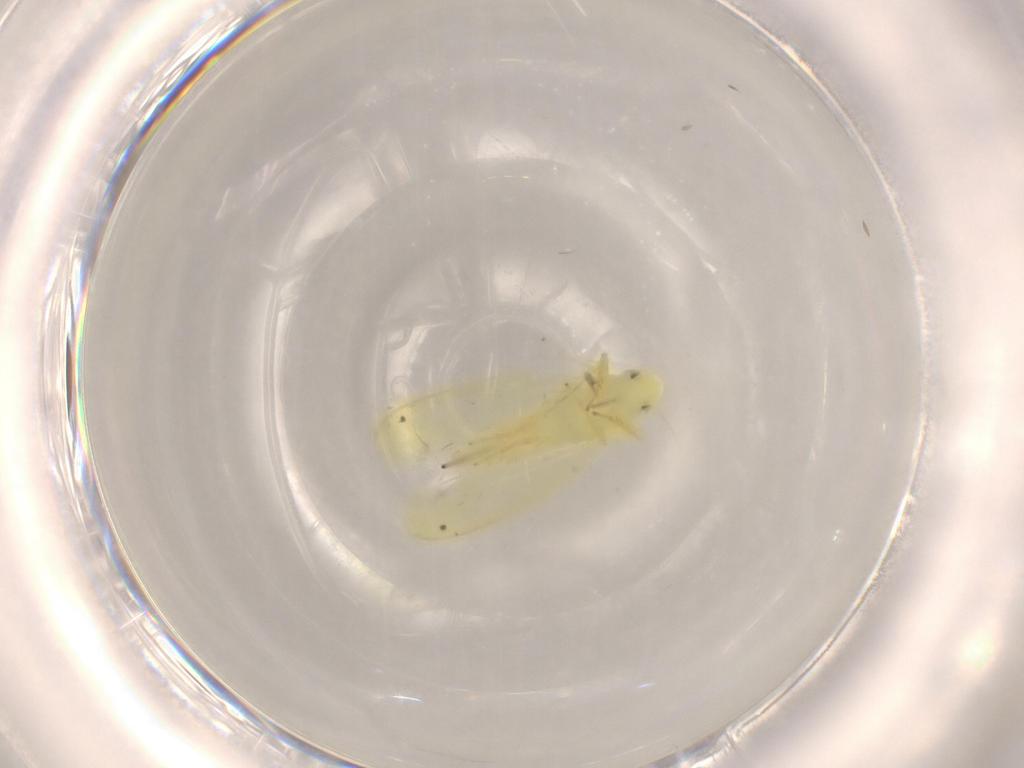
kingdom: Animalia
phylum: Arthropoda
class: Insecta
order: Hemiptera
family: Cicadellidae
